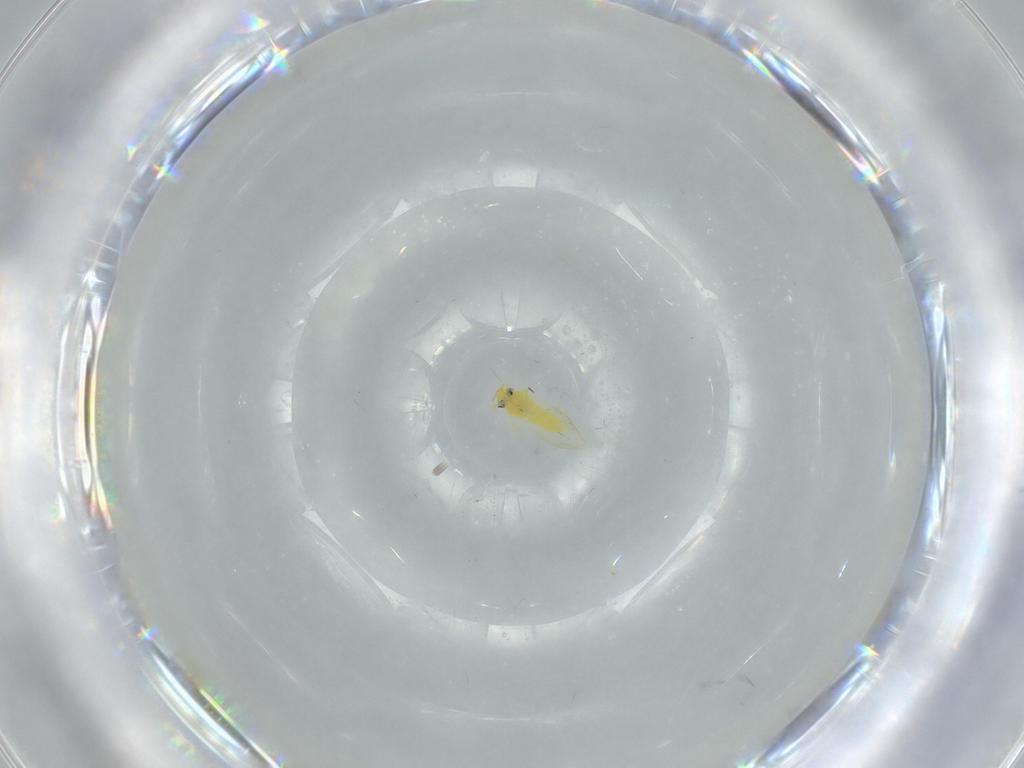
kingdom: Animalia
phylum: Arthropoda
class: Insecta
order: Hemiptera
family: Aleyrodidae
